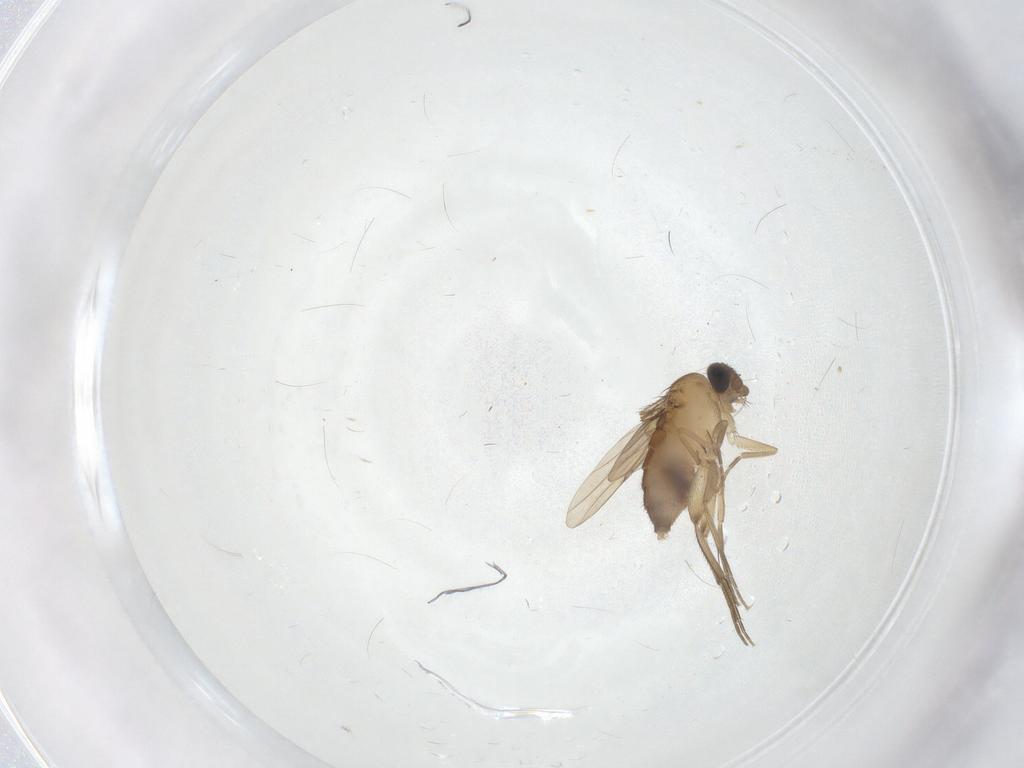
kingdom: Animalia
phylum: Arthropoda
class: Insecta
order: Diptera
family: Ceratopogonidae
